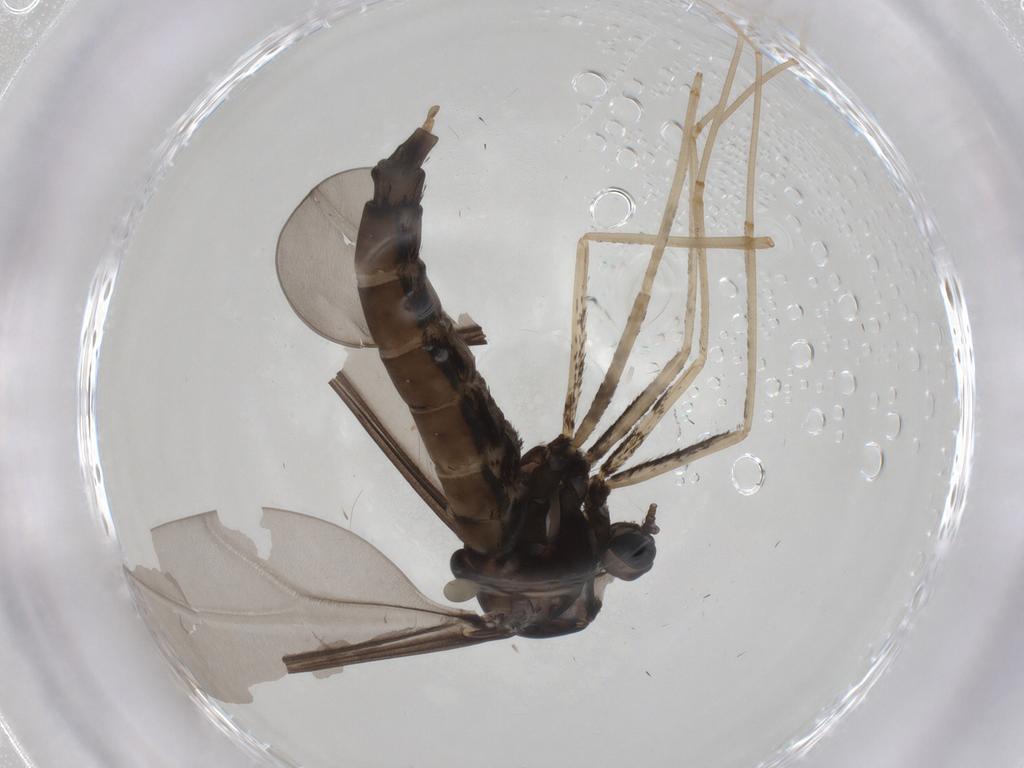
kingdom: Animalia
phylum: Arthropoda
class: Insecta
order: Diptera
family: Cecidomyiidae
